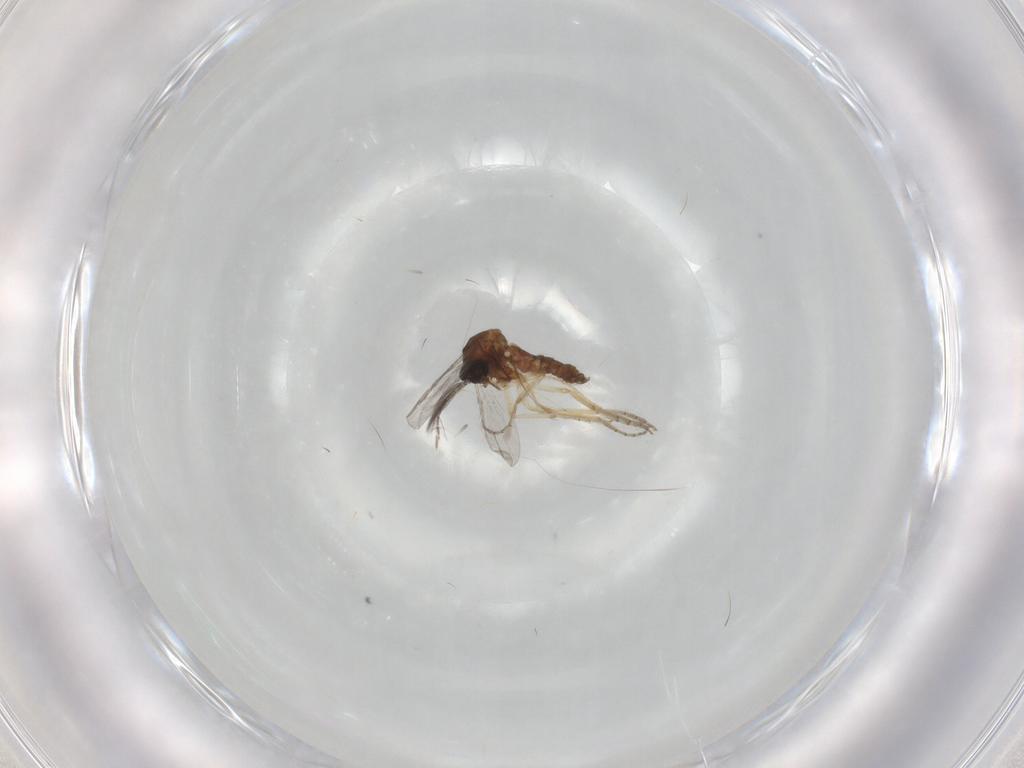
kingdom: Animalia
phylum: Arthropoda
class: Insecta
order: Diptera
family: Ceratopogonidae
